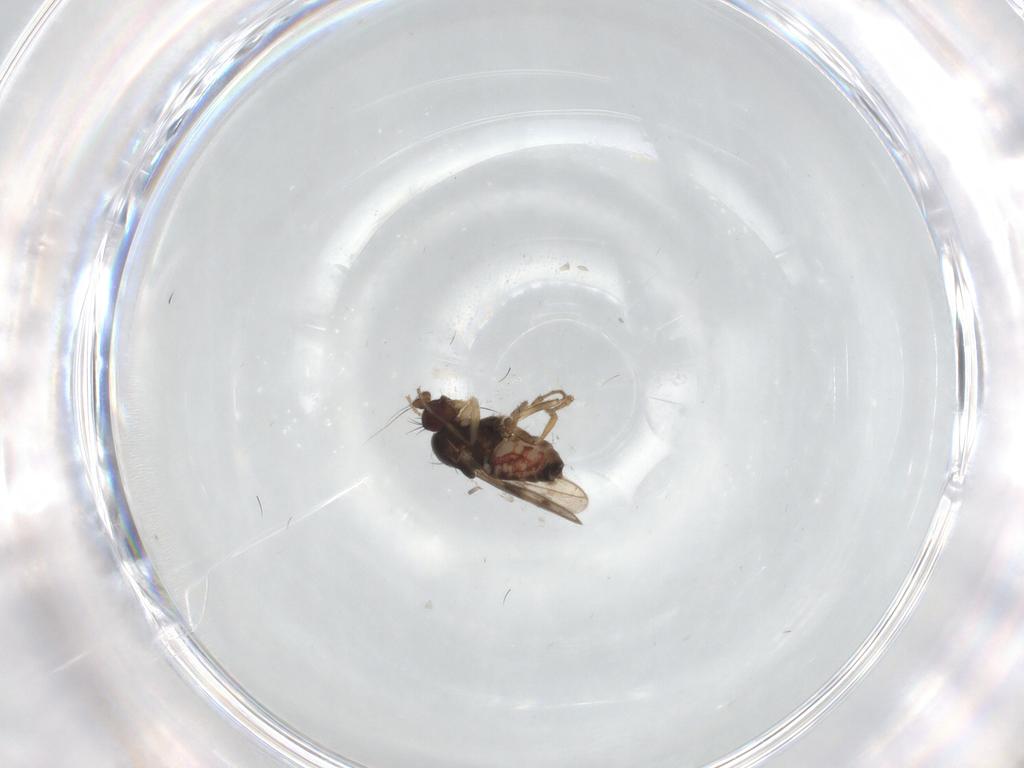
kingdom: Animalia
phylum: Arthropoda
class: Insecta
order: Diptera
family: Sphaeroceridae
